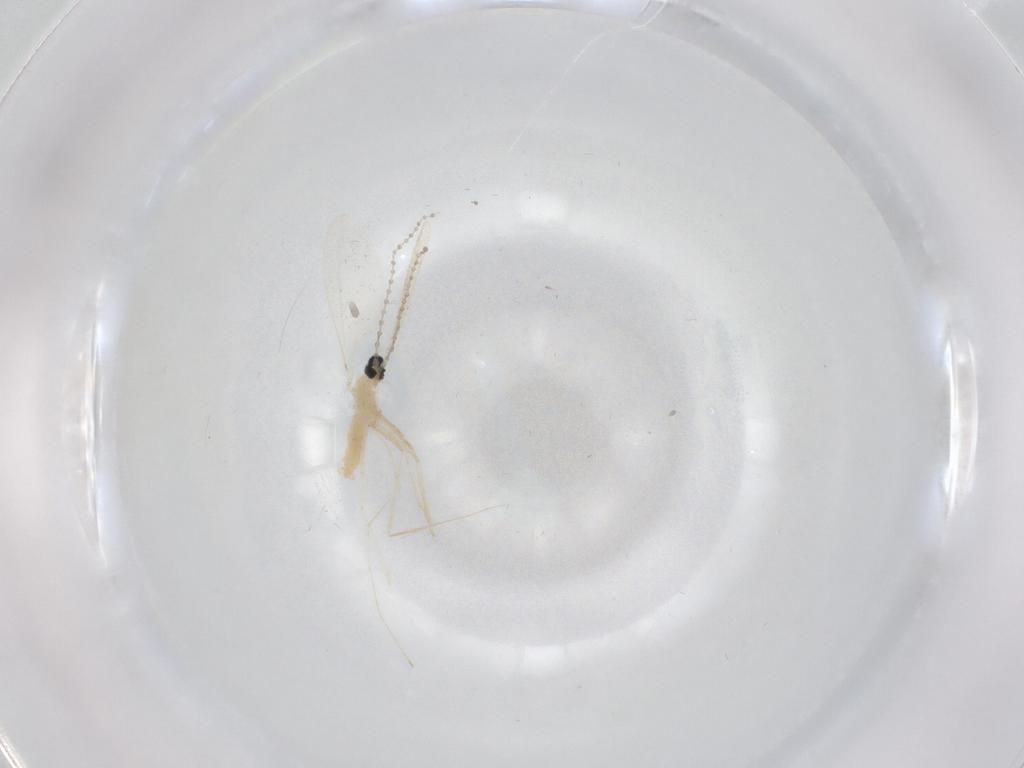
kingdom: Animalia
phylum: Arthropoda
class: Insecta
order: Diptera
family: Cecidomyiidae
